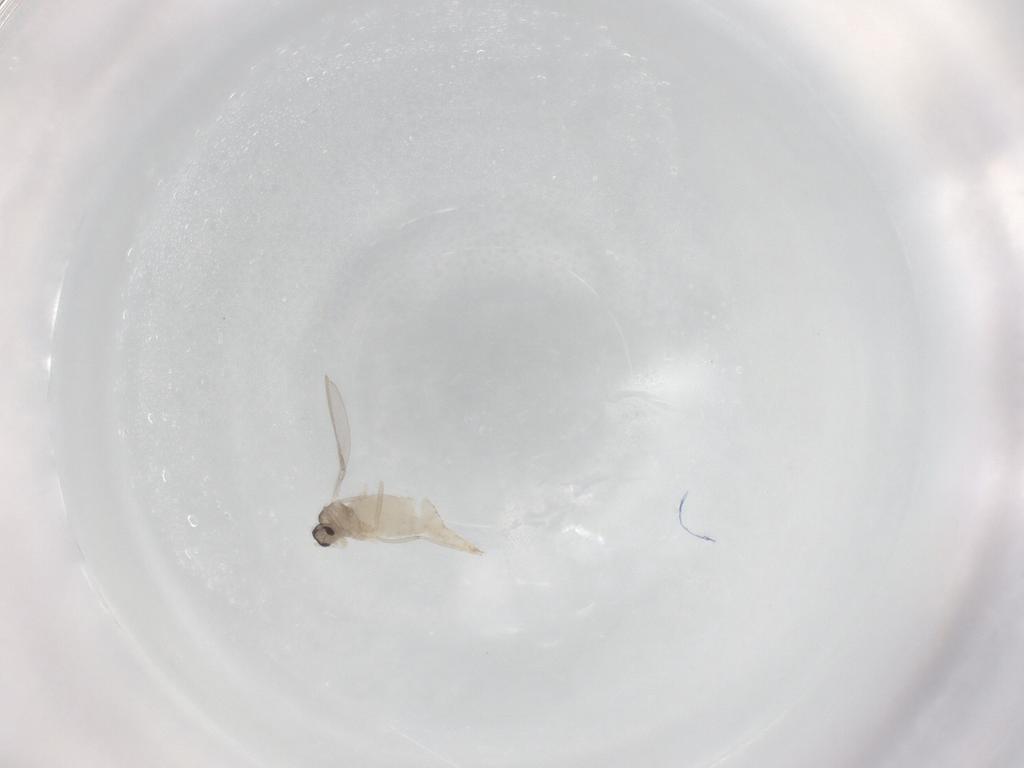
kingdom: Animalia
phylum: Arthropoda
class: Insecta
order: Diptera
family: Cecidomyiidae
